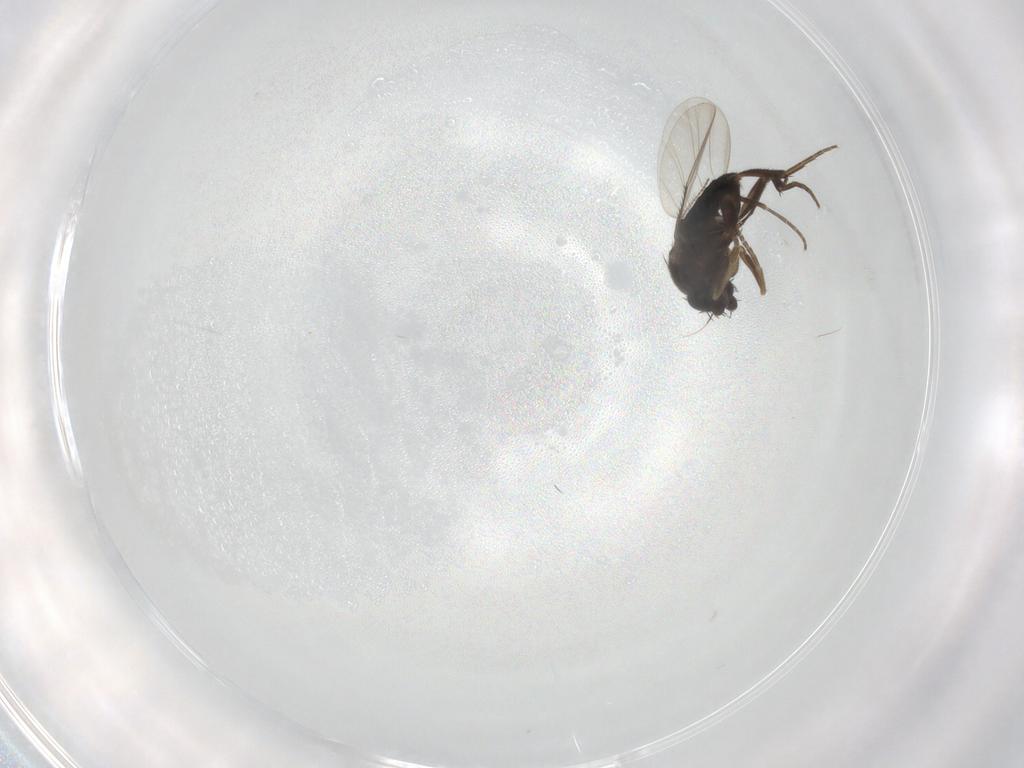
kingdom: Animalia
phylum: Arthropoda
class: Insecta
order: Diptera
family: Phoridae
